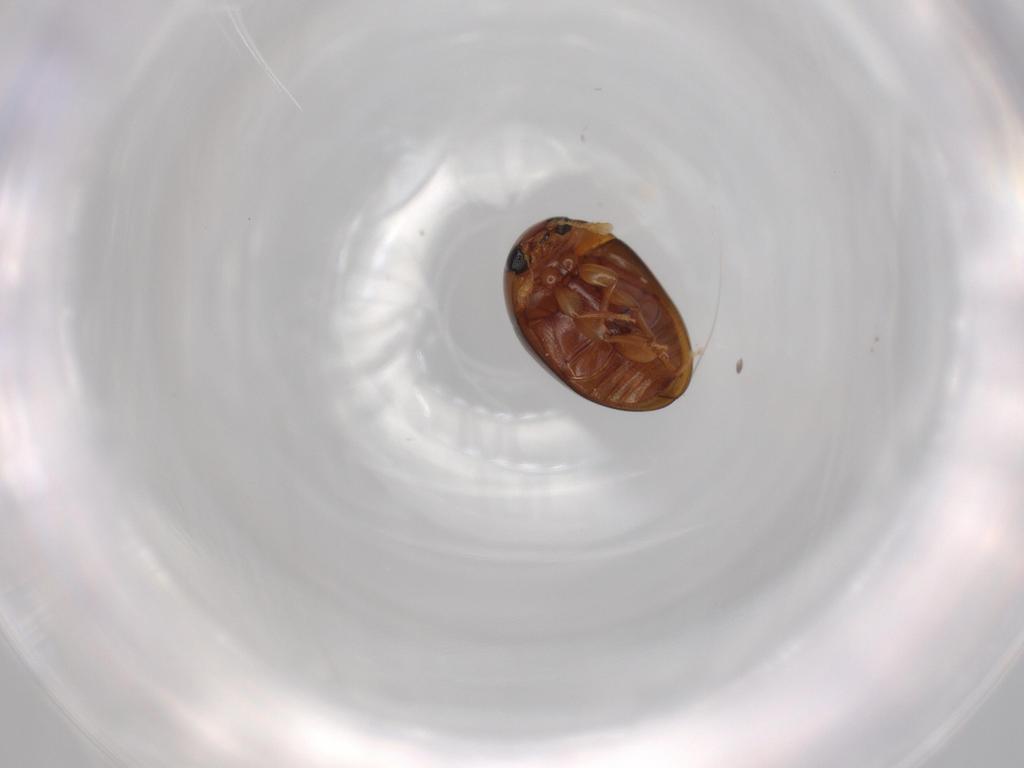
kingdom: Animalia
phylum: Arthropoda
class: Insecta
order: Coleoptera
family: Phalacridae
